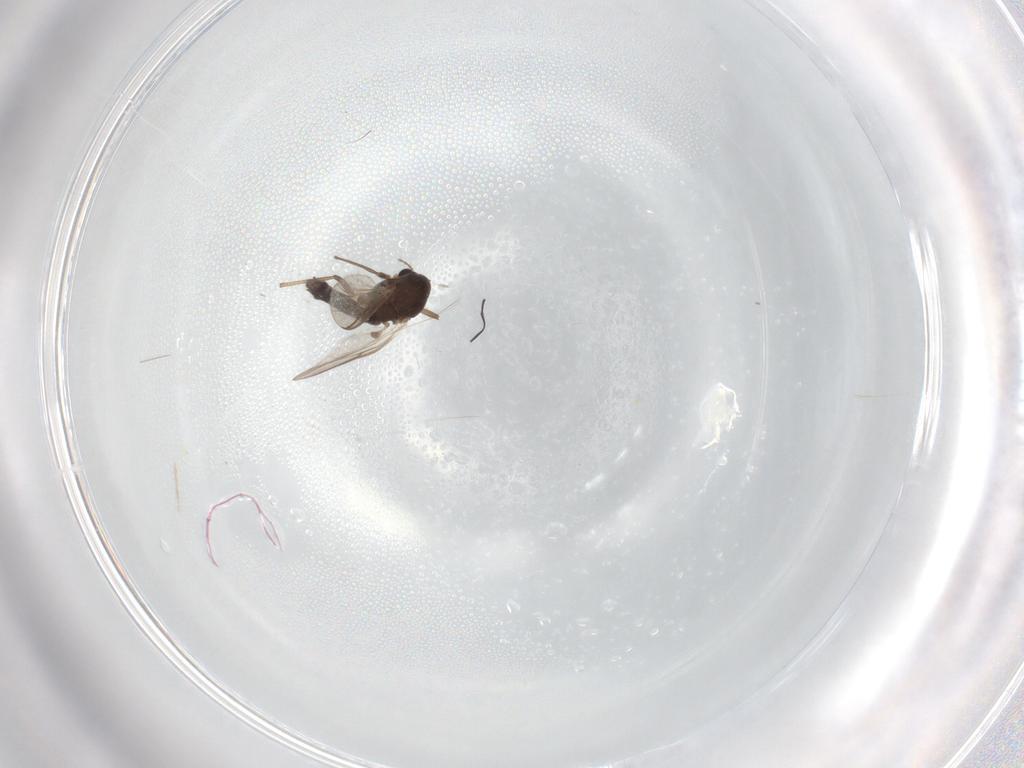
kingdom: Animalia
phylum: Arthropoda
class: Insecta
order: Diptera
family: Chironomidae
